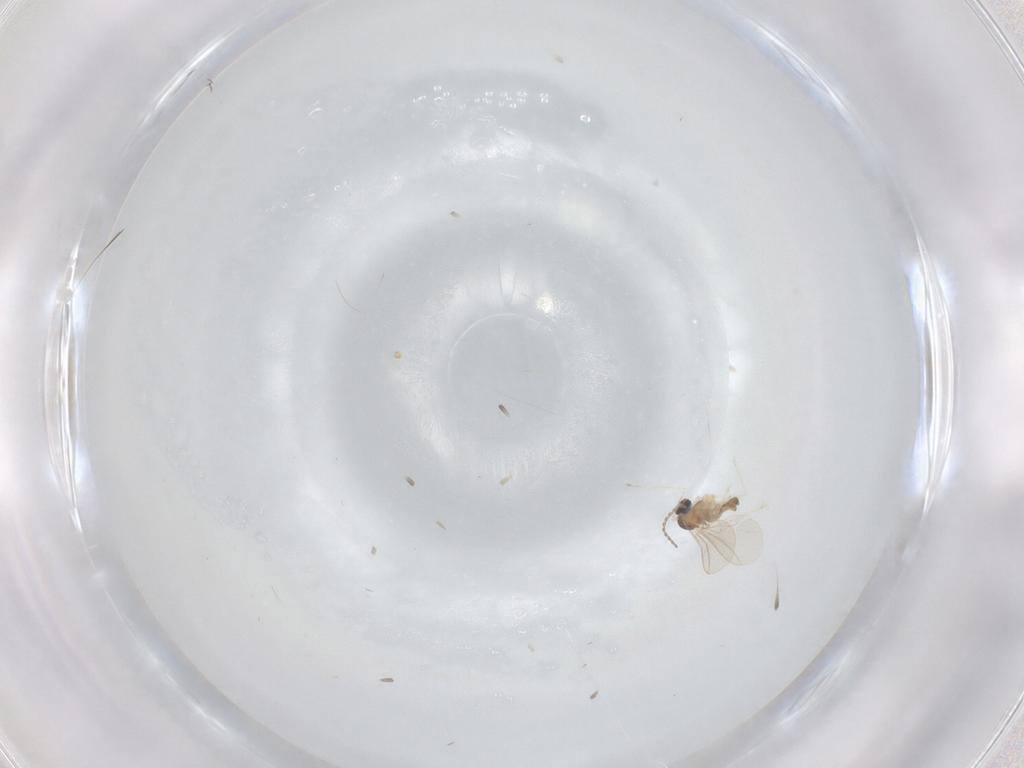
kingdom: Animalia
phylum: Arthropoda
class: Insecta
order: Diptera
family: Cecidomyiidae
